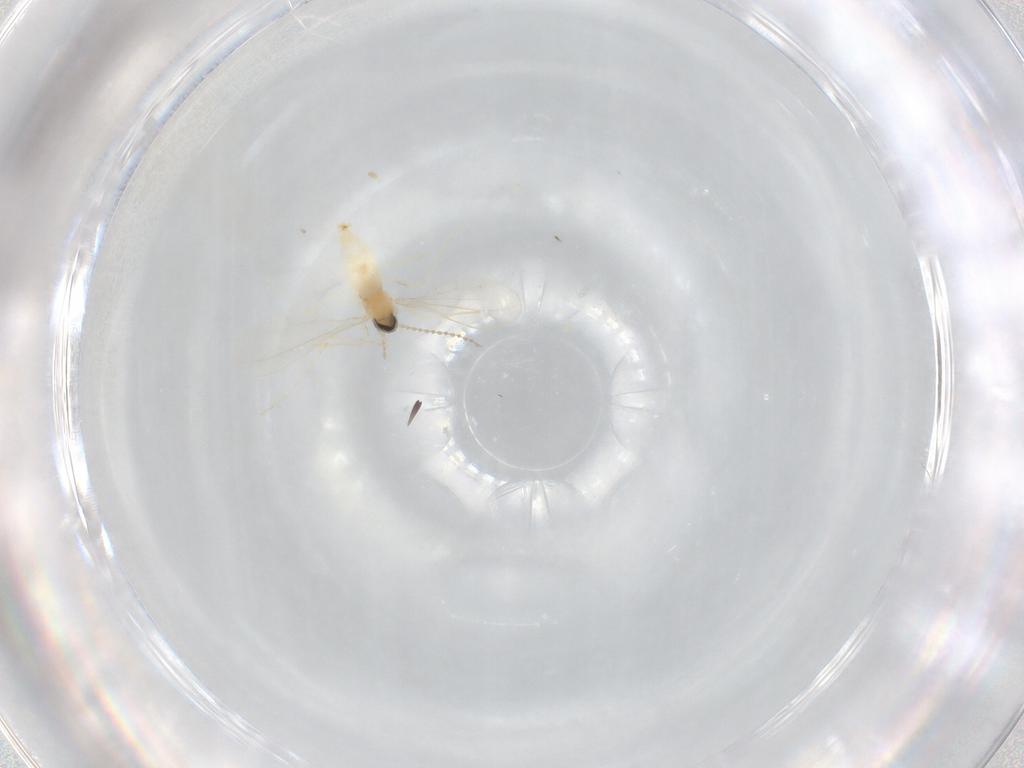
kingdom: Animalia
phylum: Arthropoda
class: Insecta
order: Diptera
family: Cecidomyiidae
